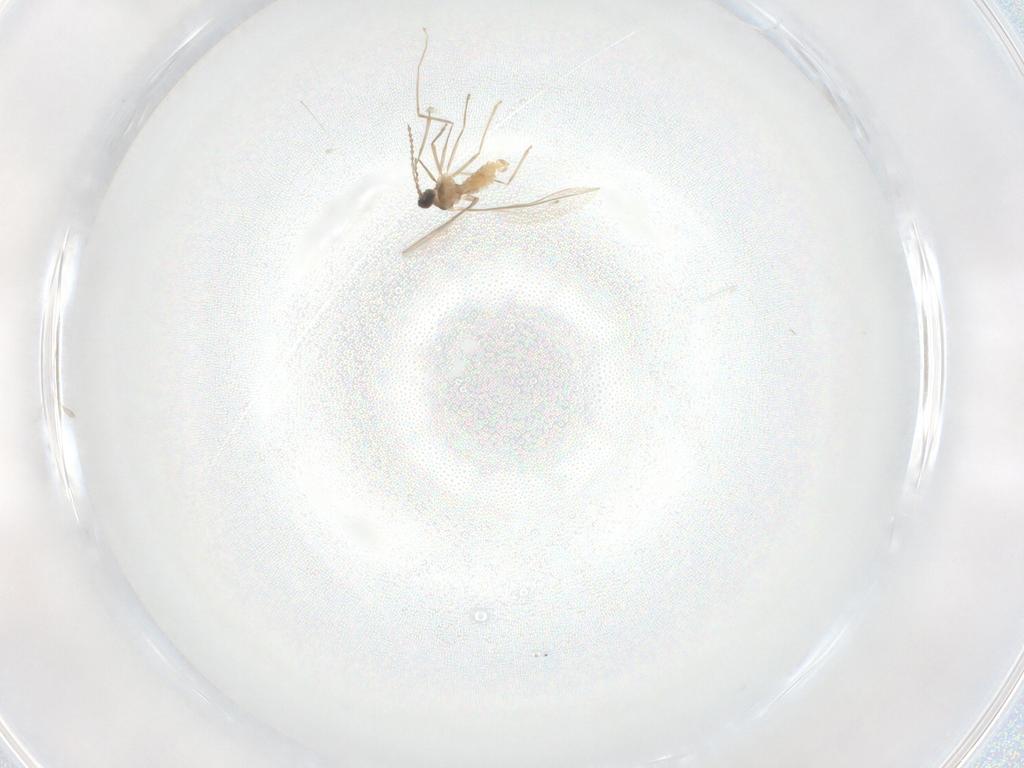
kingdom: Animalia
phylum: Arthropoda
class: Insecta
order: Diptera
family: Cecidomyiidae
